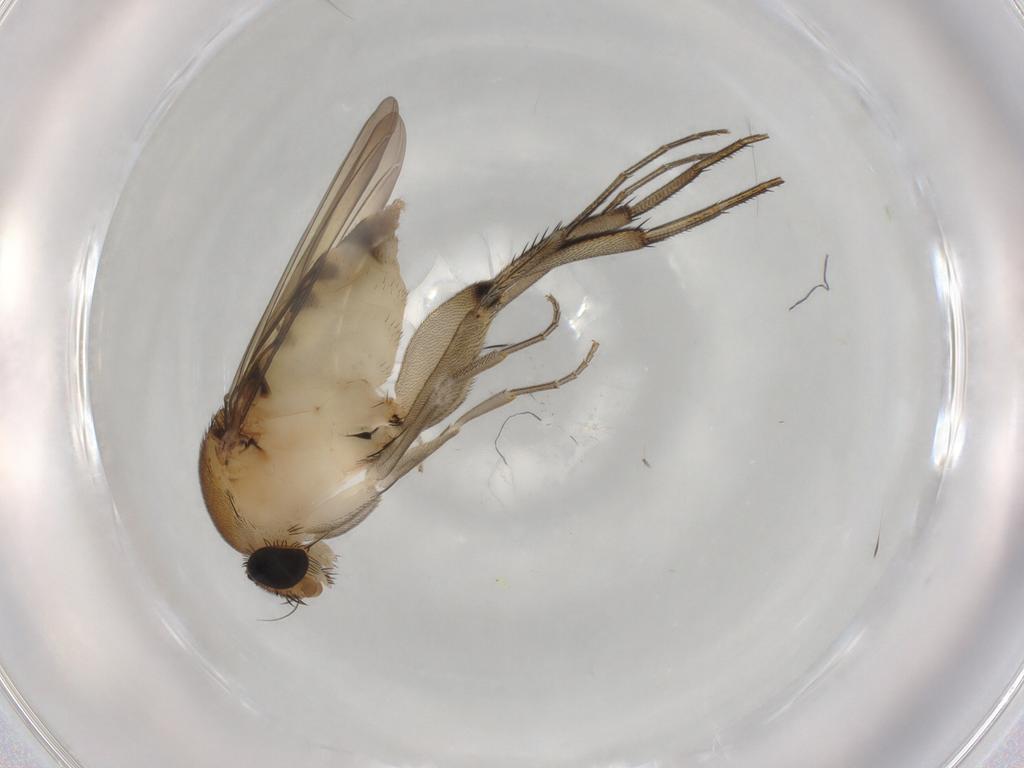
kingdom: Animalia
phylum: Arthropoda
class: Insecta
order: Diptera
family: Phoridae
